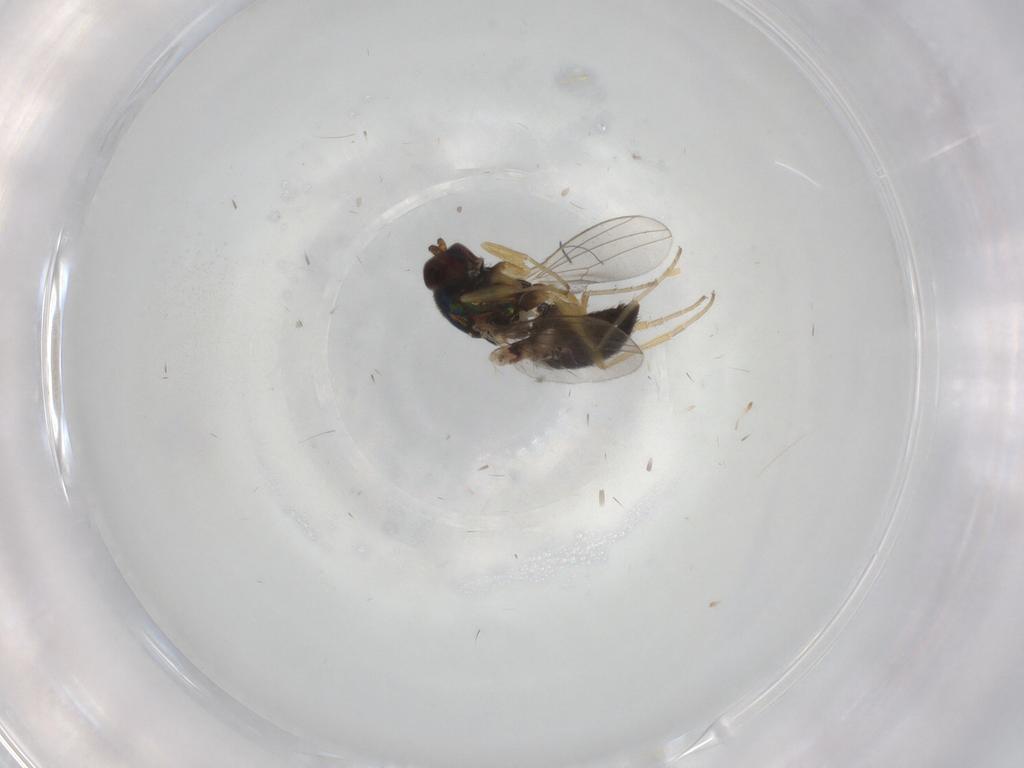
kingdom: Animalia
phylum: Arthropoda
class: Insecta
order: Diptera
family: Dolichopodidae
